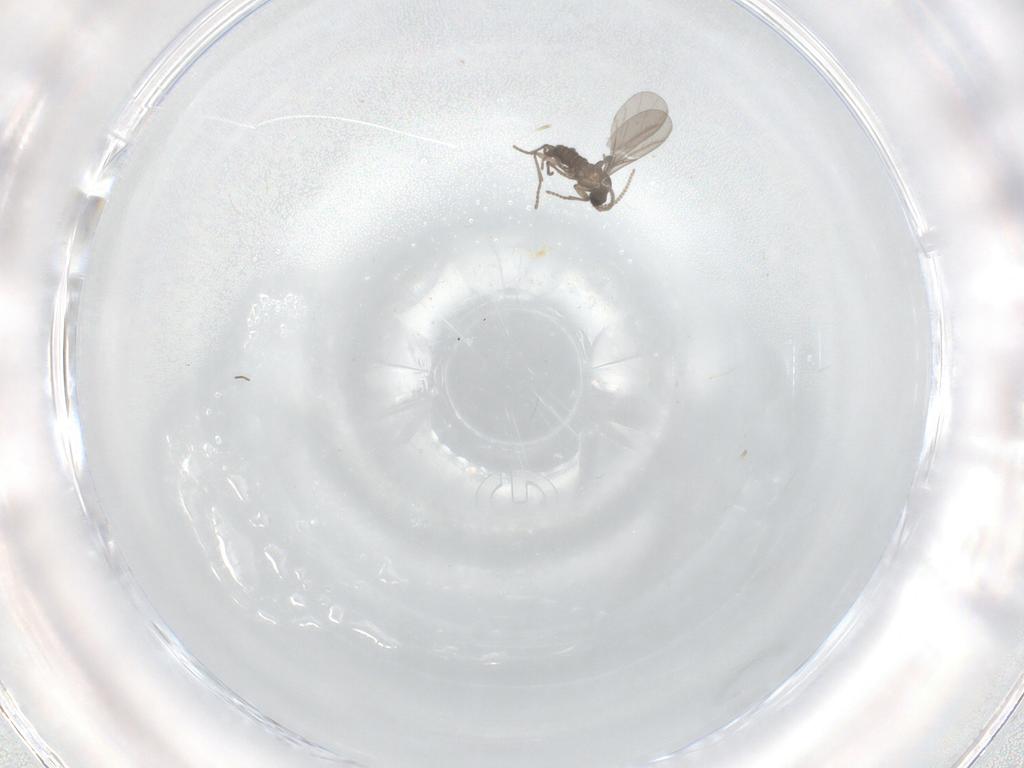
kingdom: Animalia
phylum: Arthropoda
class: Insecta
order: Diptera
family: Chironomidae
